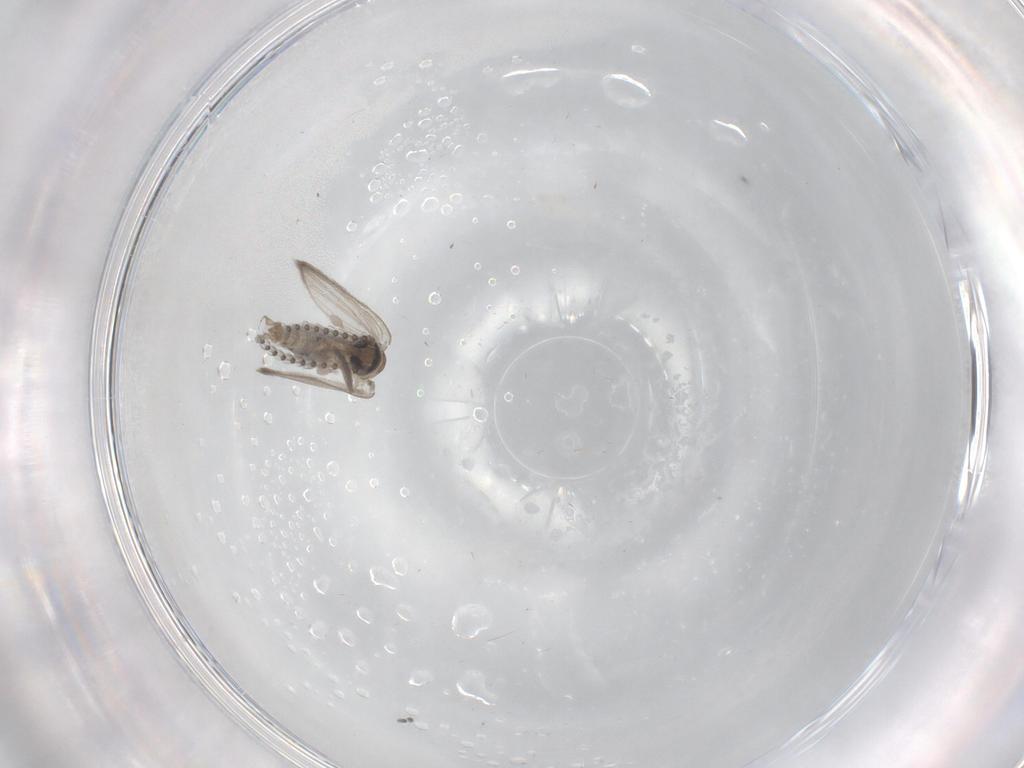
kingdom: Animalia
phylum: Arthropoda
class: Insecta
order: Diptera
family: Psychodidae
